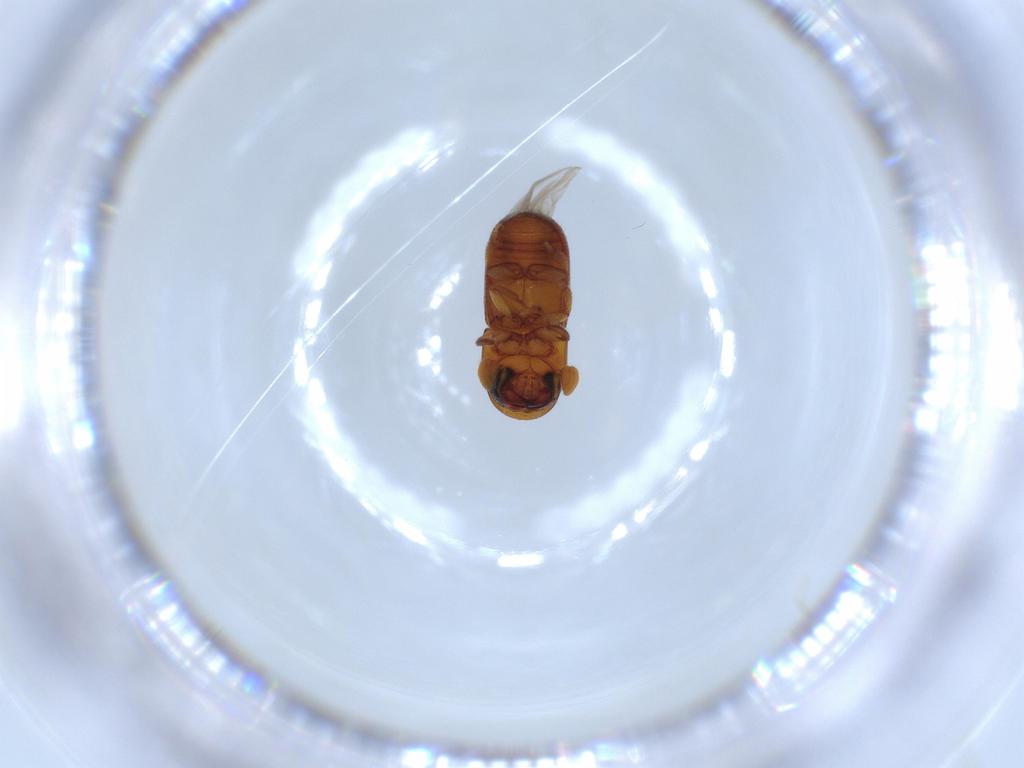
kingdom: Animalia
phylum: Arthropoda
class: Insecta
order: Coleoptera
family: Curculionidae
